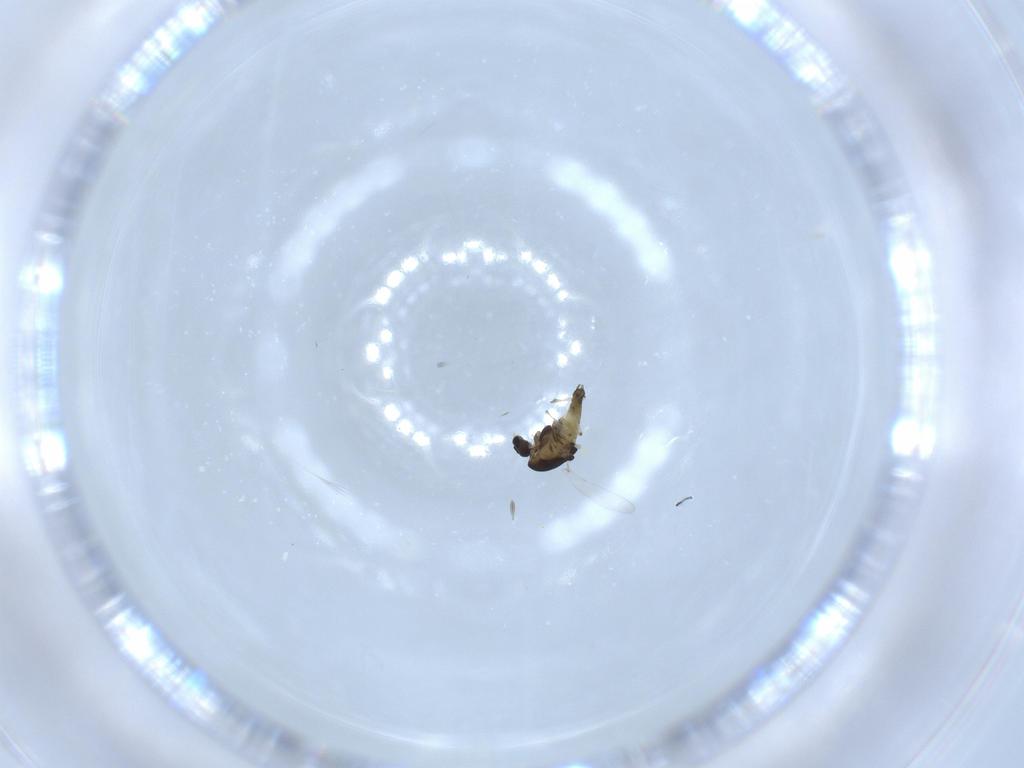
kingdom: Animalia
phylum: Arthropoda
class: Insecta
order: Diptera
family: Chironomidae
